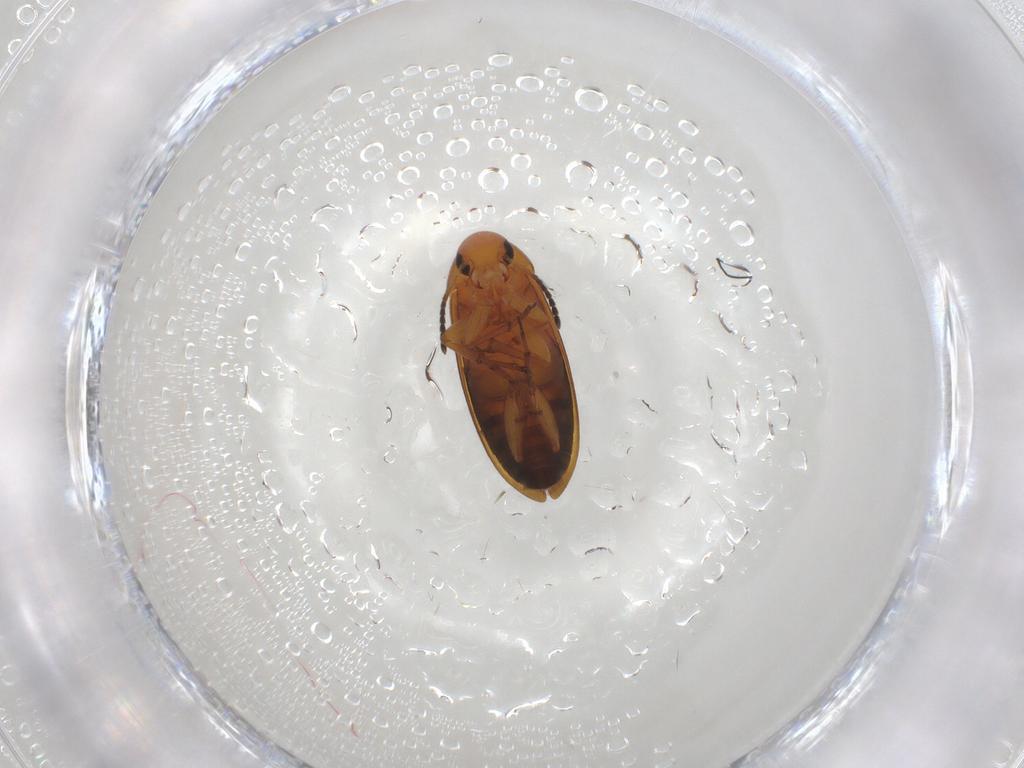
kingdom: Animalia
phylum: Arthropoda
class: Insecta
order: Coleoptera
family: Scraptiidae
